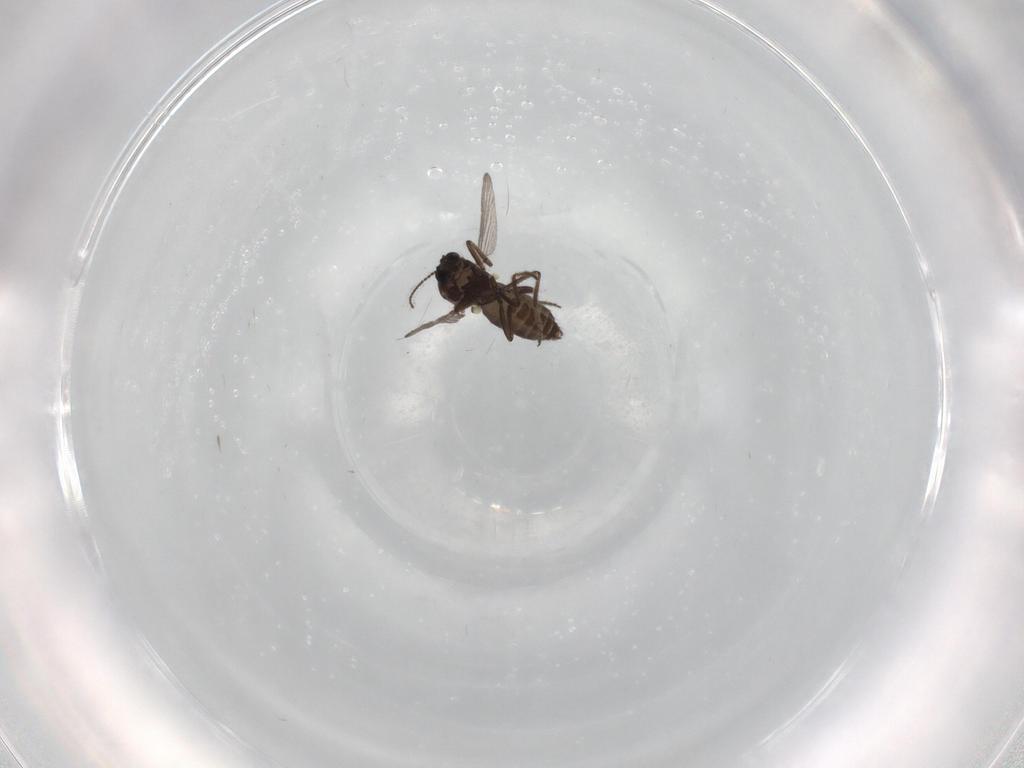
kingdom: Animalia
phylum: Arthropoda
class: Insecta
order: Diptera
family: Ceratopogonidae
